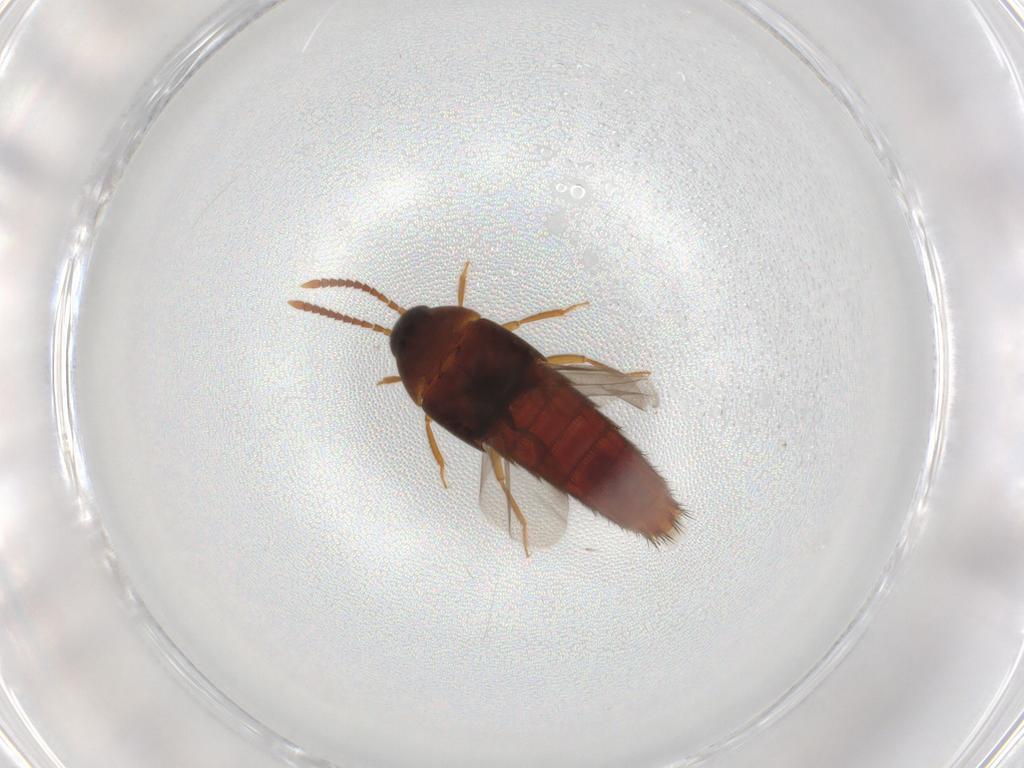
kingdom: Animalia
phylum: Arthropoda
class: Insecta
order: Coleoptera
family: Staphylinidae
